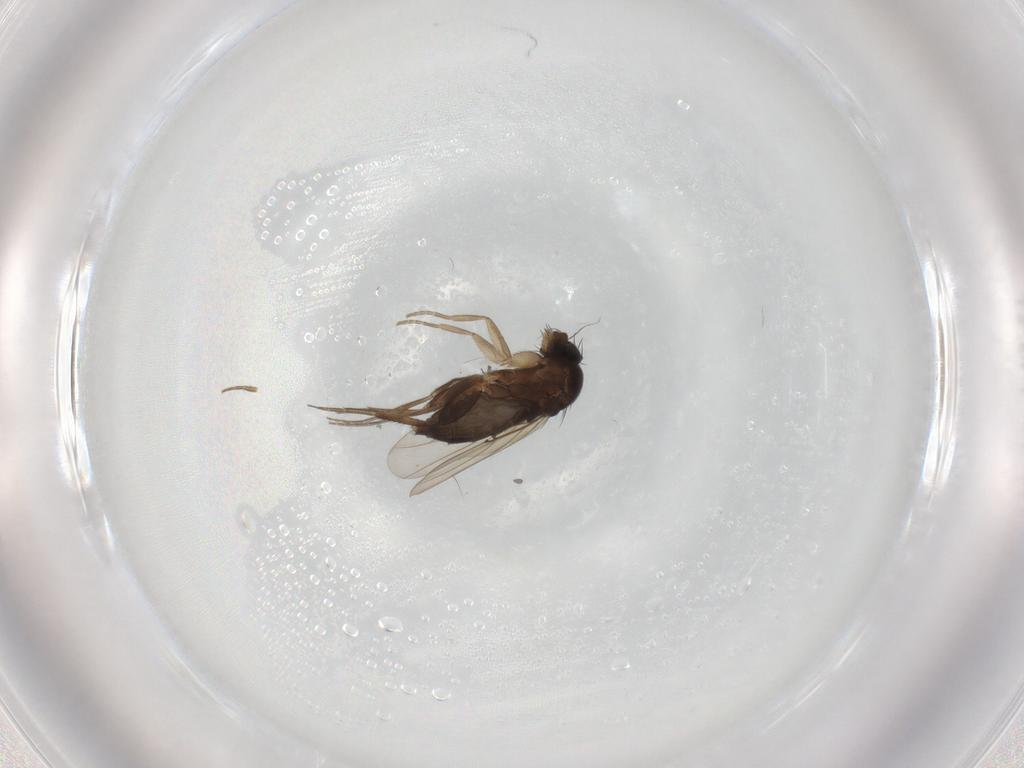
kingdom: Animalia
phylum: Arthropoda
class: Insecta
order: Diptera
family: Phoridae
